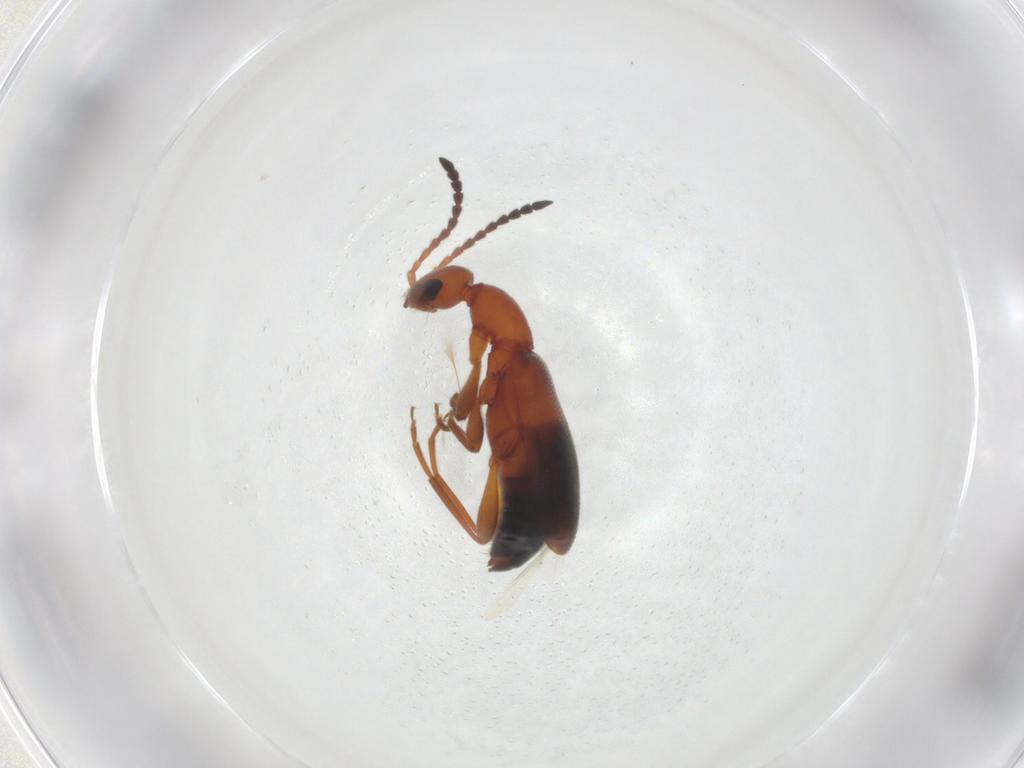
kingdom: Animalia
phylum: Arthropoda
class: Insecta
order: Coleoptera
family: Anthicidae
